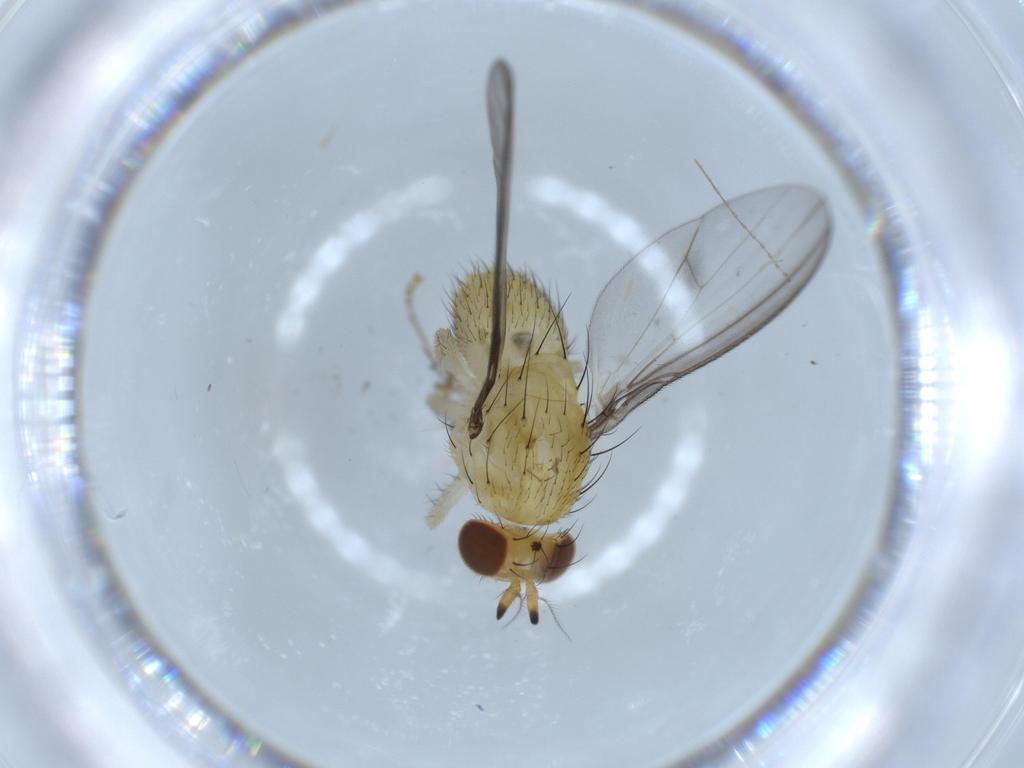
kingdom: Animalia
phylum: Arthropoda
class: Insecta
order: Diptera
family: Lauxaniidae
